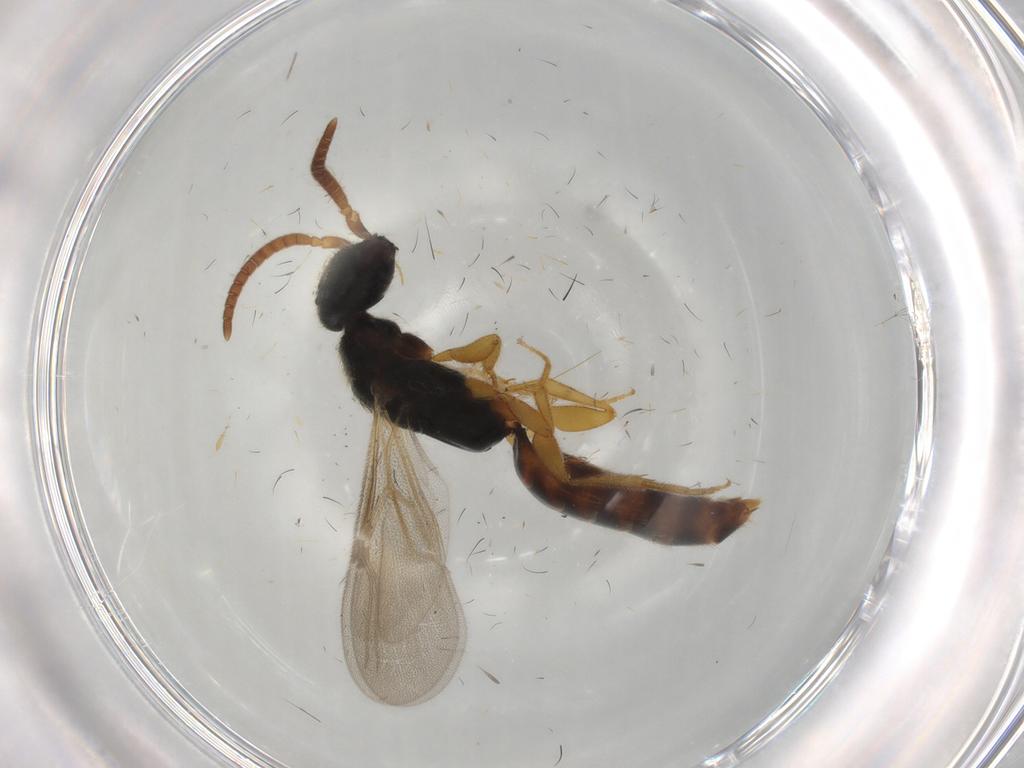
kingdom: Animalia
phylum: Arthropoda
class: Insecta
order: Hymenoptera
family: Bethylidae
